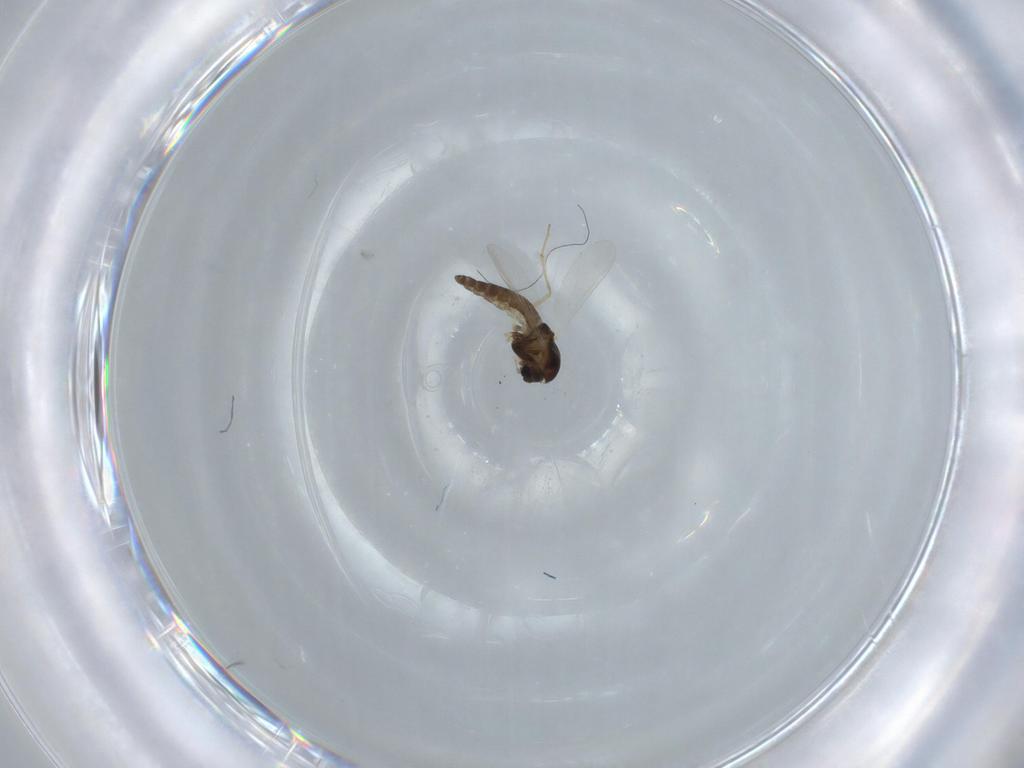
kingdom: Animalia
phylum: Arthropoda
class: Insecta
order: Diptera
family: Chironomidae
